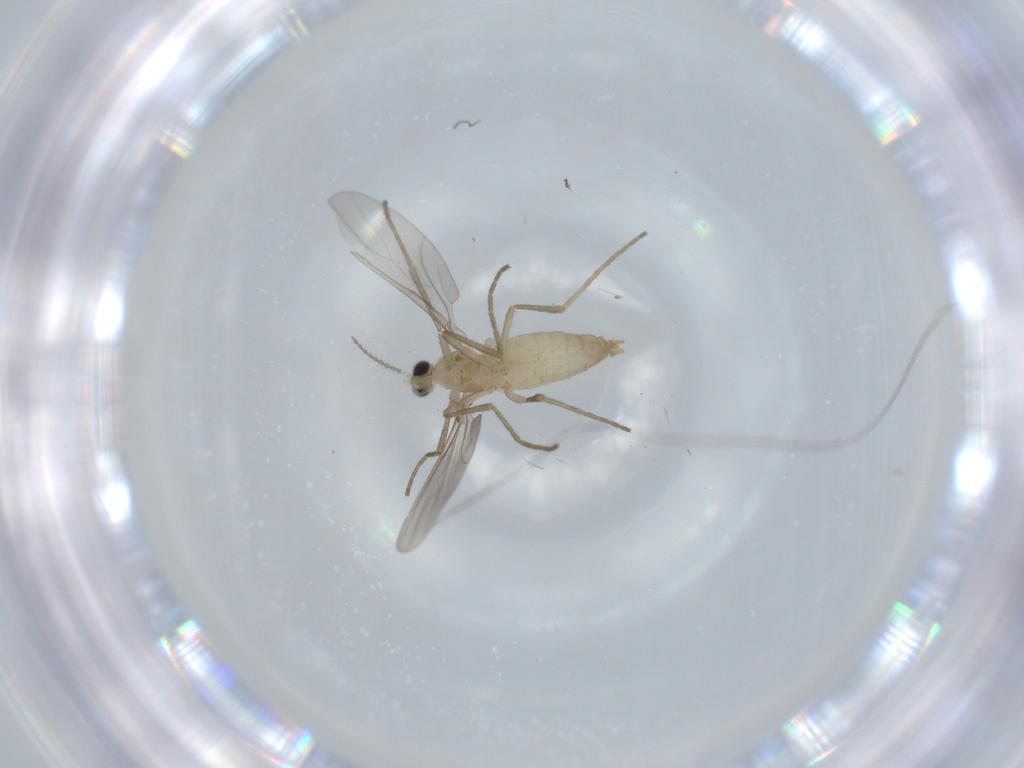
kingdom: Animalia
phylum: Arthropoda
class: Insecta
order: Diptera
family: Cecidomyiidae
